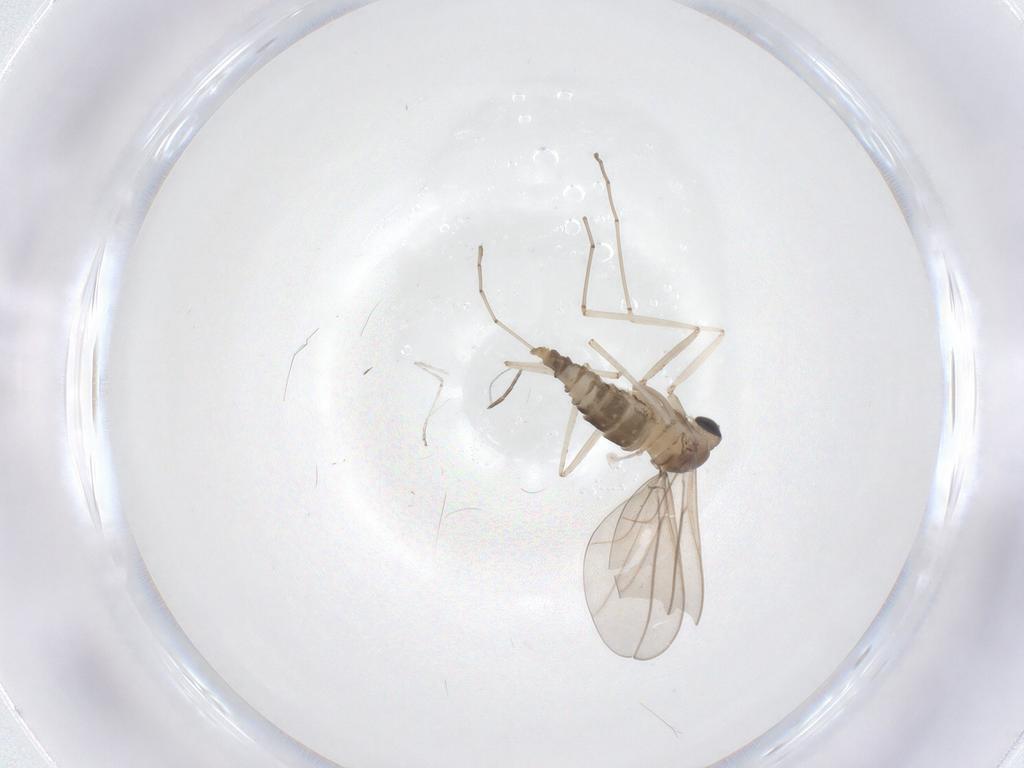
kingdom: Animalia
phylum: Arthropoda
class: Insecta
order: Diptera
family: Cecidomyiidae
